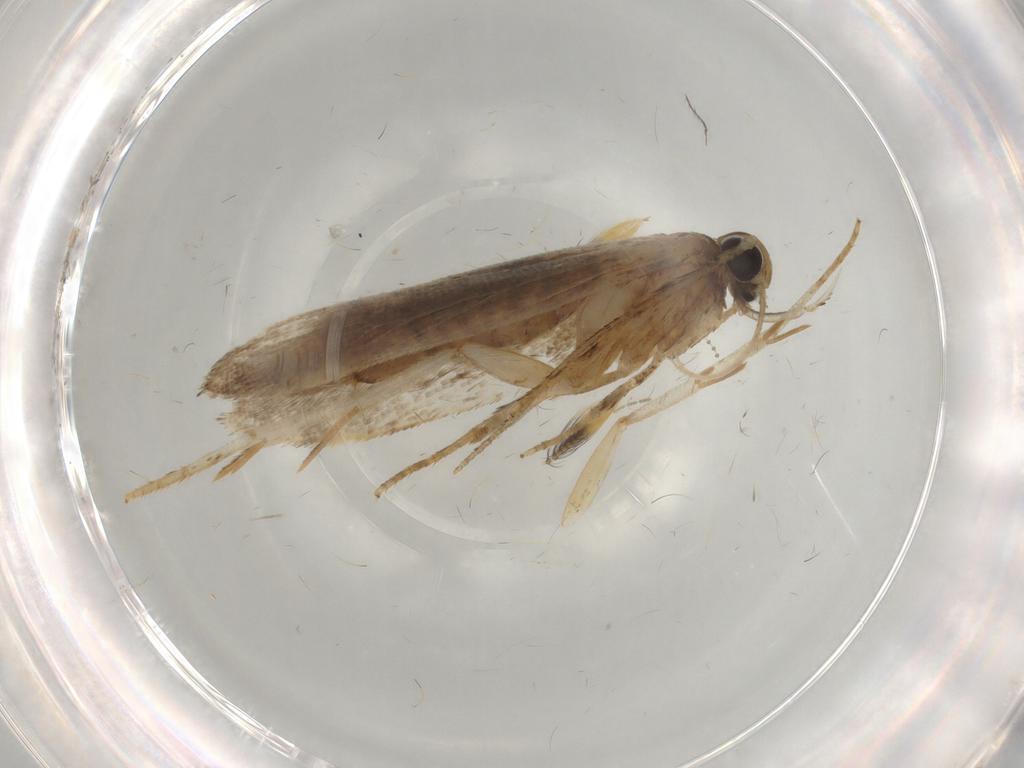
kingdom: Animalia
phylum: Arthropoda
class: Insecta
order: Lepidoptera
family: Gelechiidae
